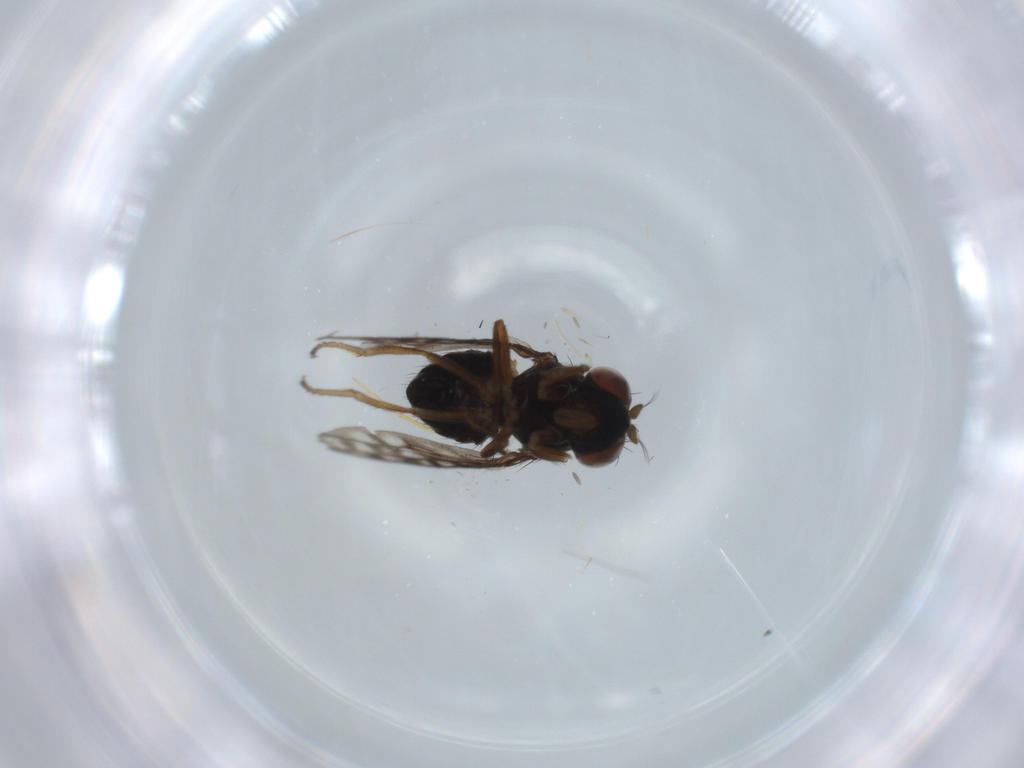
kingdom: Animalia
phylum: Arthropoda
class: Insecta
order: Diptera
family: Ephydridae
